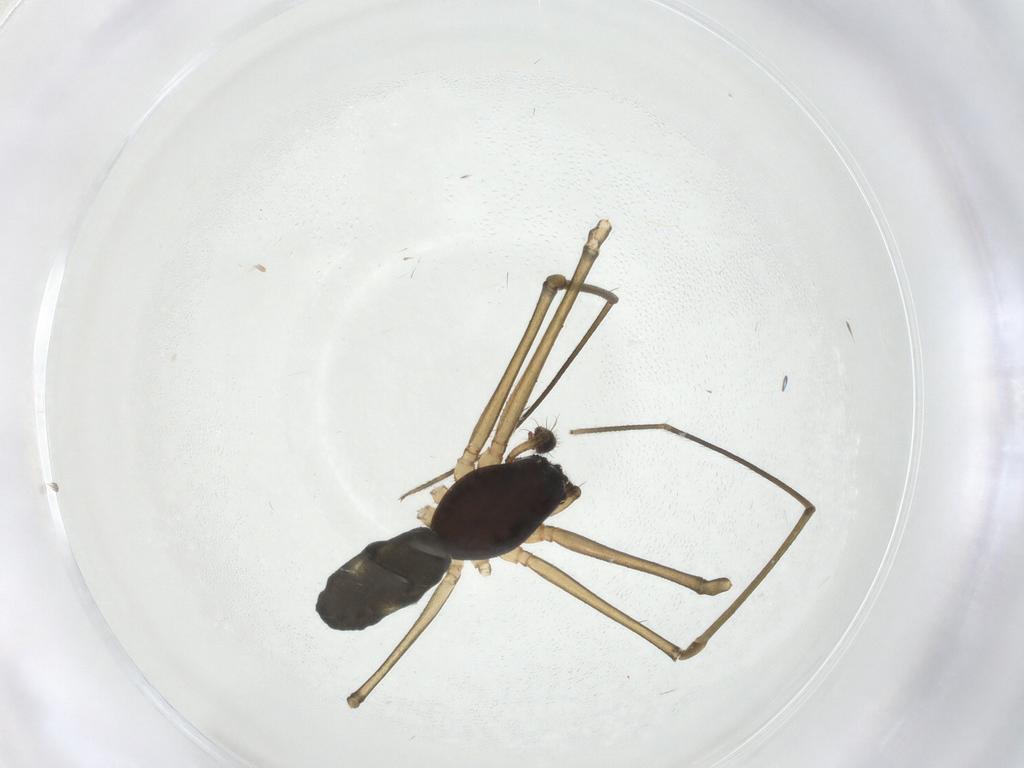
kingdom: Animalia
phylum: Arthropoda
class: Arachnida
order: Araneae
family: Linyphiidae
